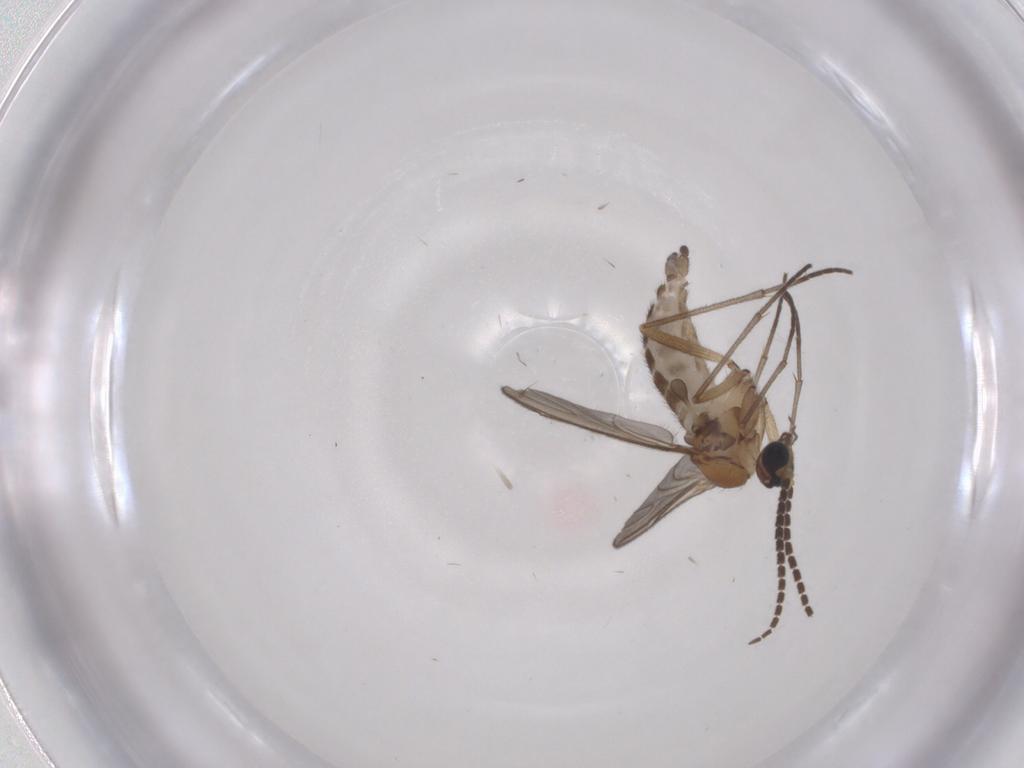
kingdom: Animalia
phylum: Arthropoda
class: Insecta
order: Diptera
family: Sciaridae
